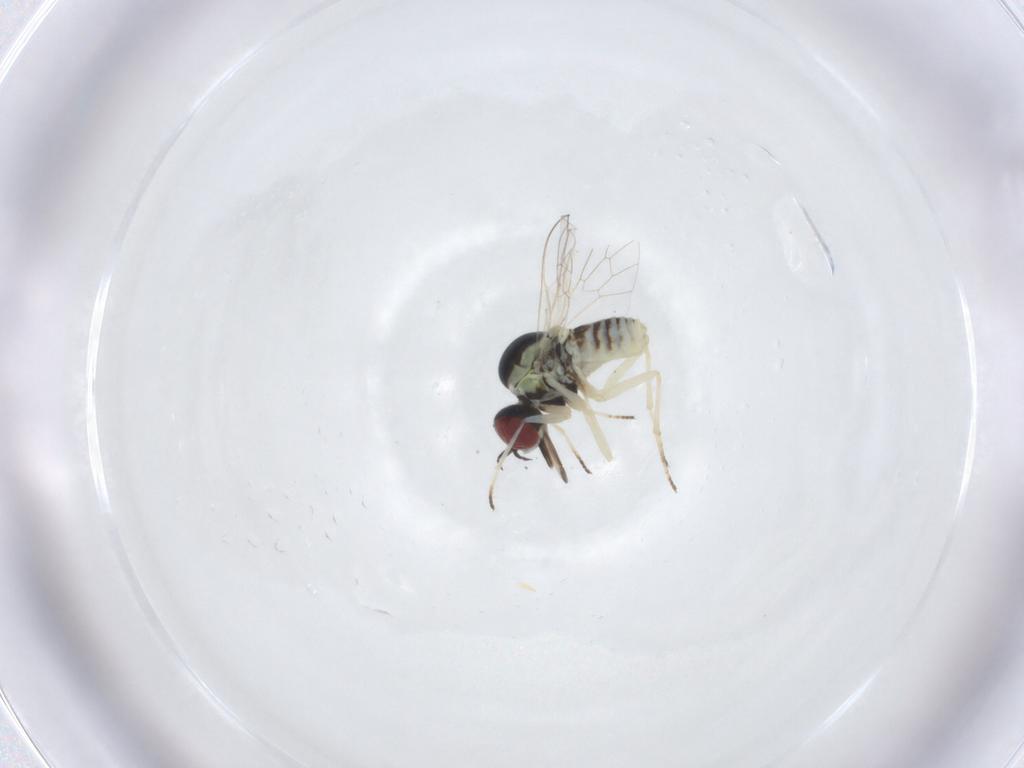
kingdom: Animalia
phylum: Arthropoda
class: Insecta
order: Diptera
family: Bombyliidae
